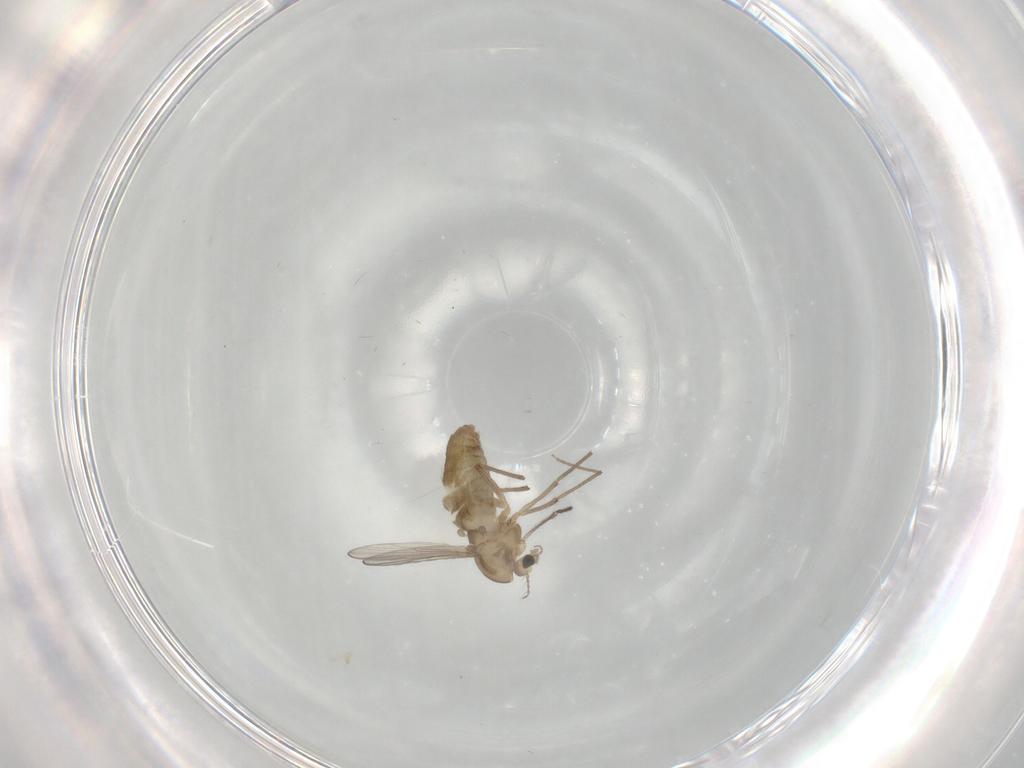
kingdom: Animalia
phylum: Arthropoda
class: Insecta
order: Diptera
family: Chironomidae
